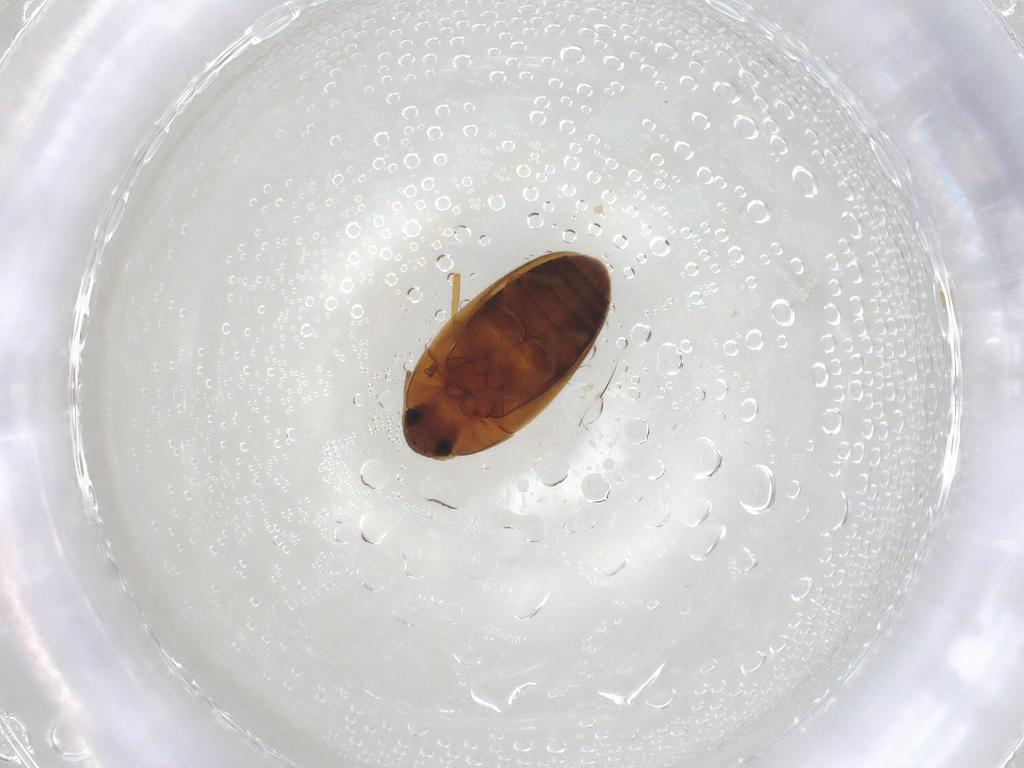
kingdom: Animalia
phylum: Arthropoda
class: Insecta
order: Coleoptera
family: Mycetophagidae
